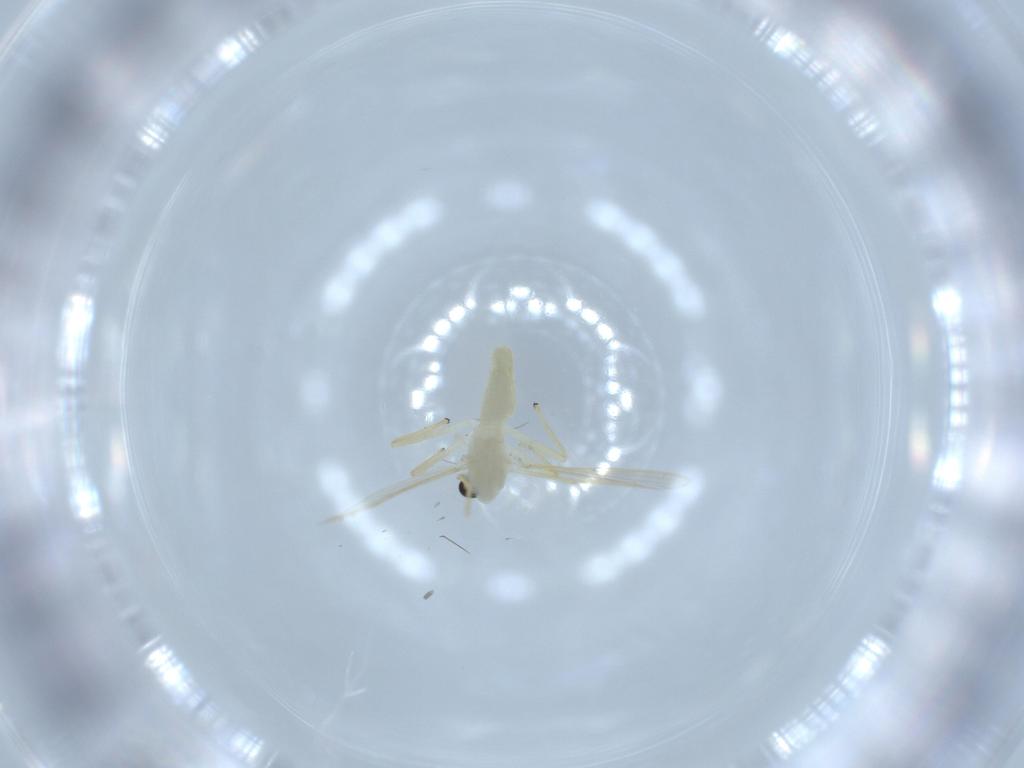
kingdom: Animalia
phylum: Arthropoda
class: Insecta
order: Diptera
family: Chironomidae
